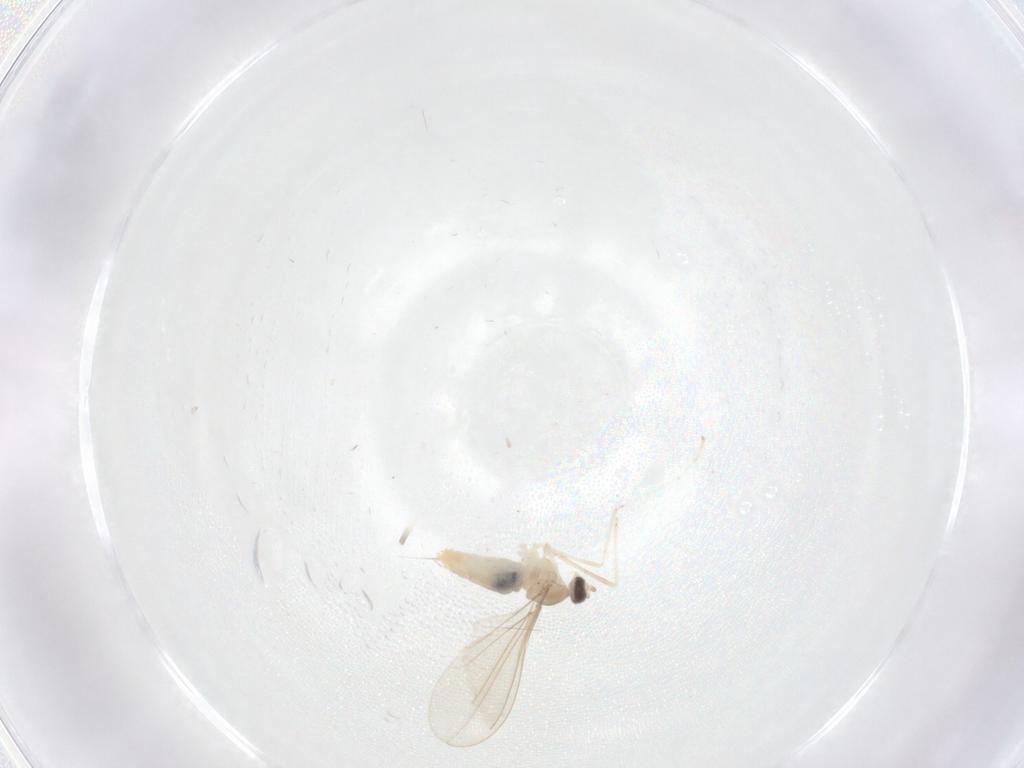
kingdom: Animalia
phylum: Arthropoda
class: Insecta
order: Diptera
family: Cecidomyiidae
